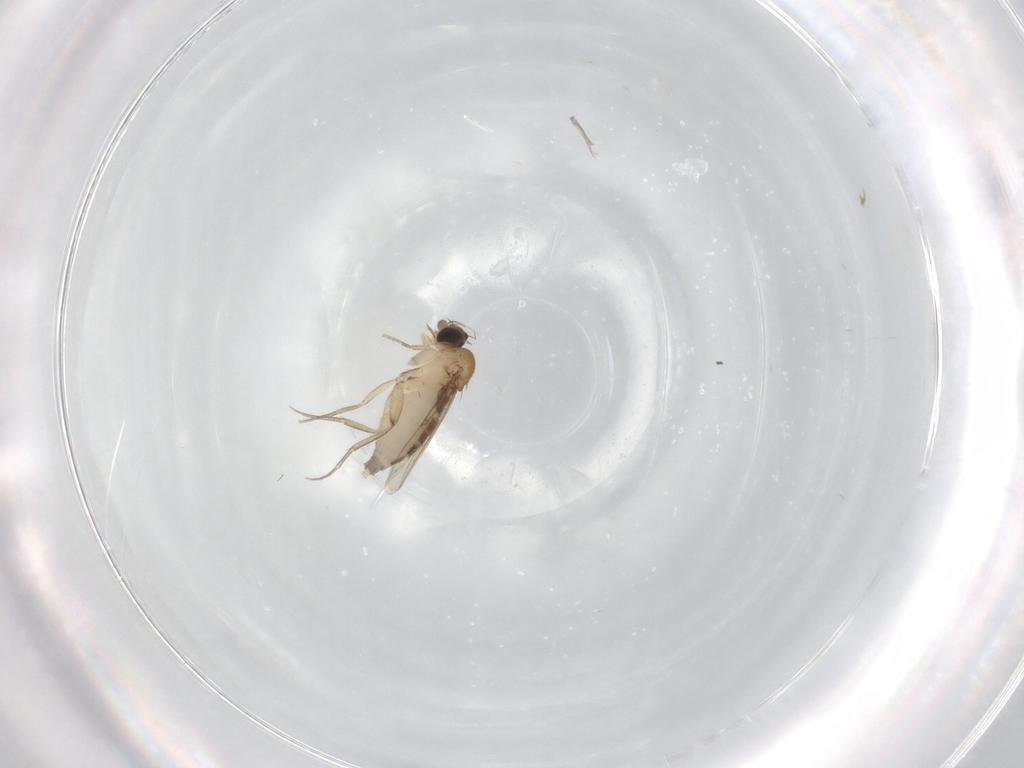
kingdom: Animalia
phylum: Arthropoda
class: Insecta
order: Diptera
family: Phoridae
